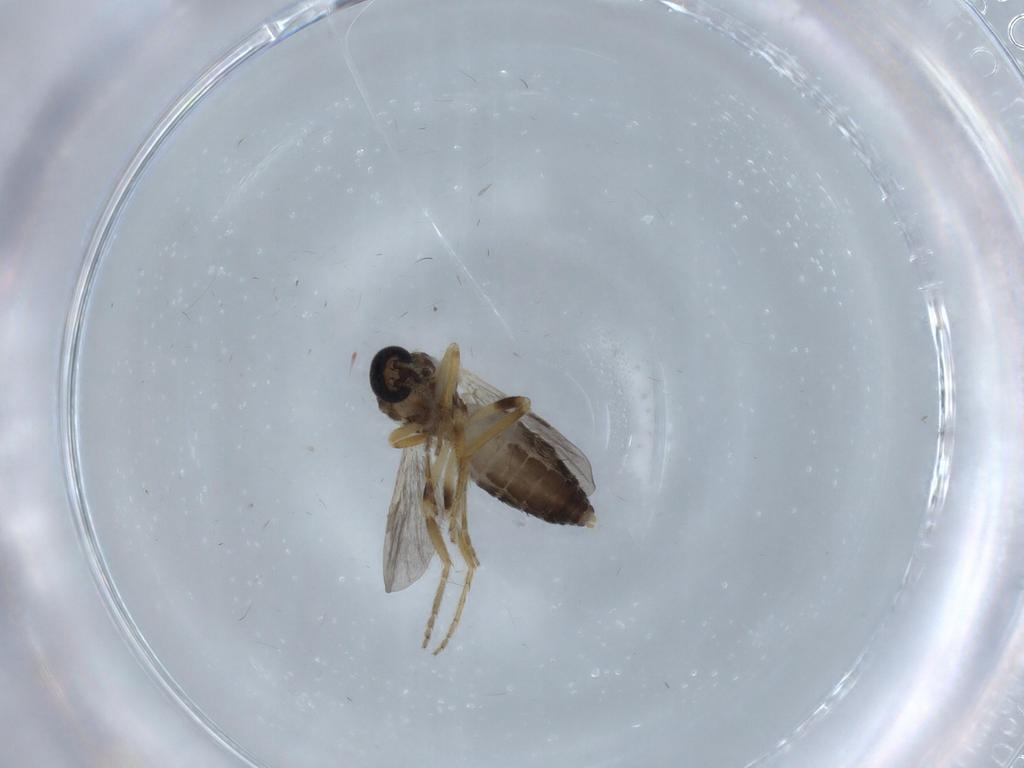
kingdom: Animalia
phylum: Arthropoda
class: Insecta
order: Diptera
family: Ceratopogonidae
